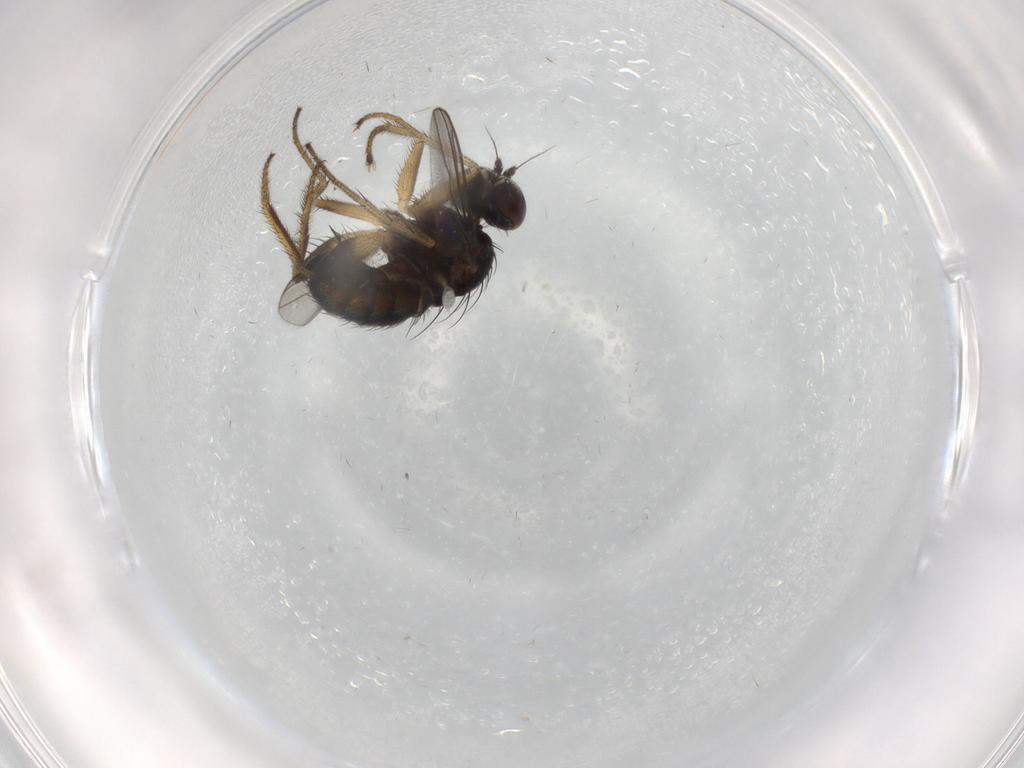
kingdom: Animalia
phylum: Arthropoda
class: Insecta
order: Diptera
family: Dolichopodidae
